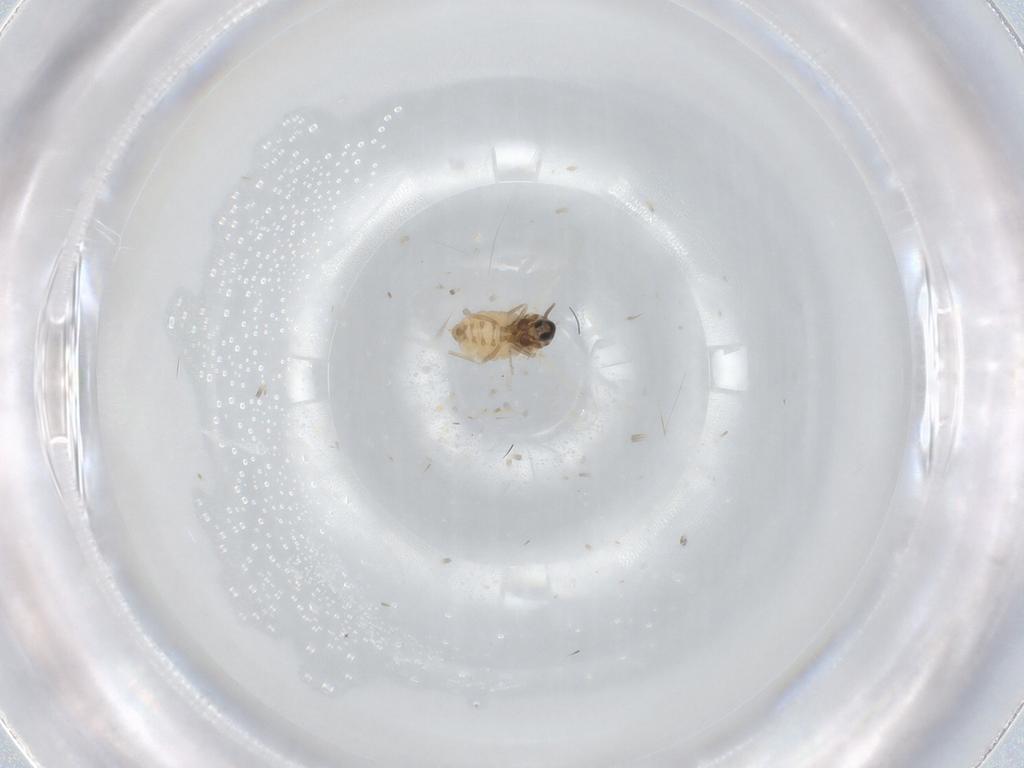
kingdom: Animalia
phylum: Arthropoda
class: Insecta
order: Diptera
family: Cecidomyiidae
